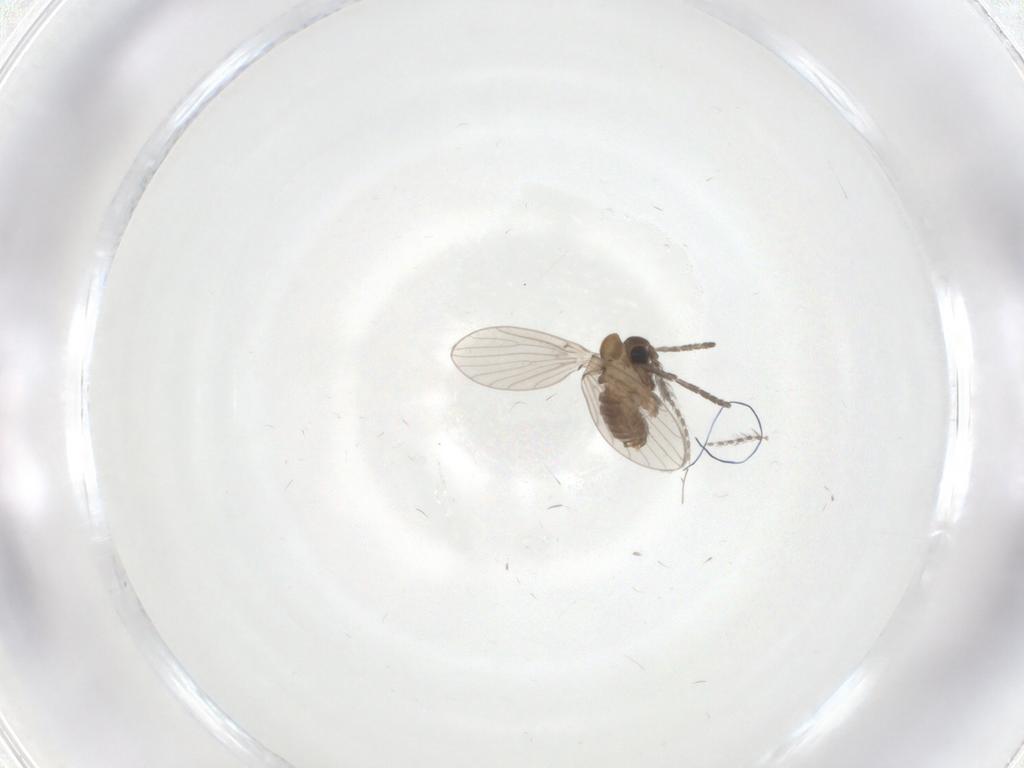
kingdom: Animalia
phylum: Arthropoda
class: Insecta
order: Diptera
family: Psychodidae
